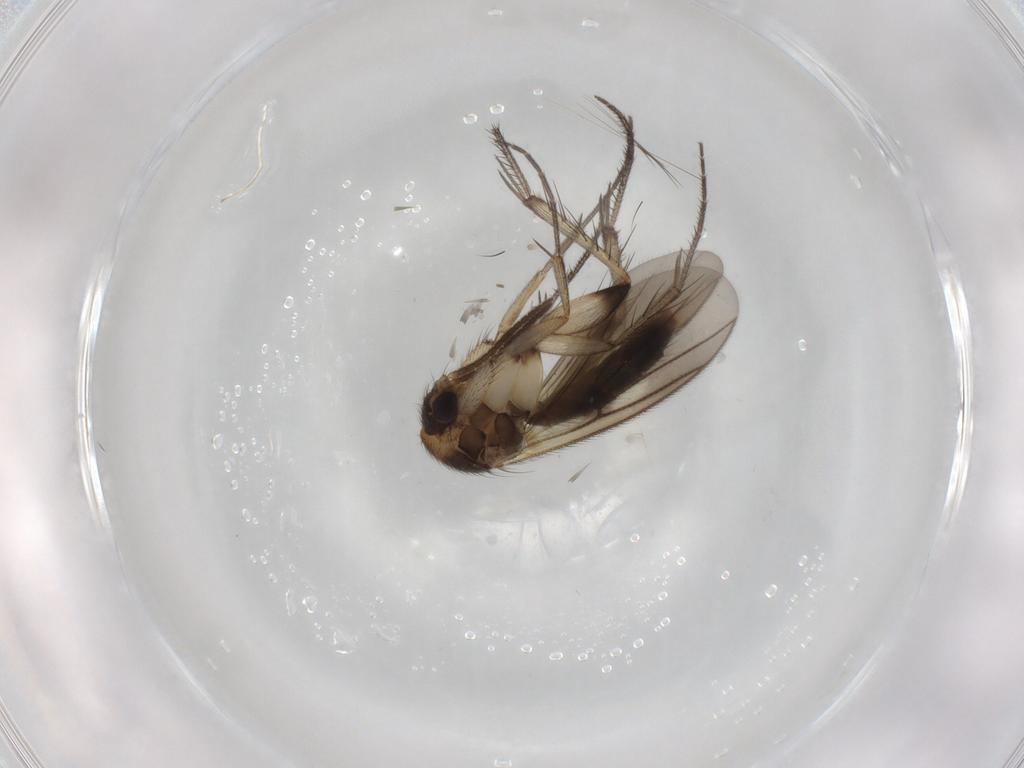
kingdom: Animalia
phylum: Arthropoda
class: Insecta
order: Diptera
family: Mycetophilidae
